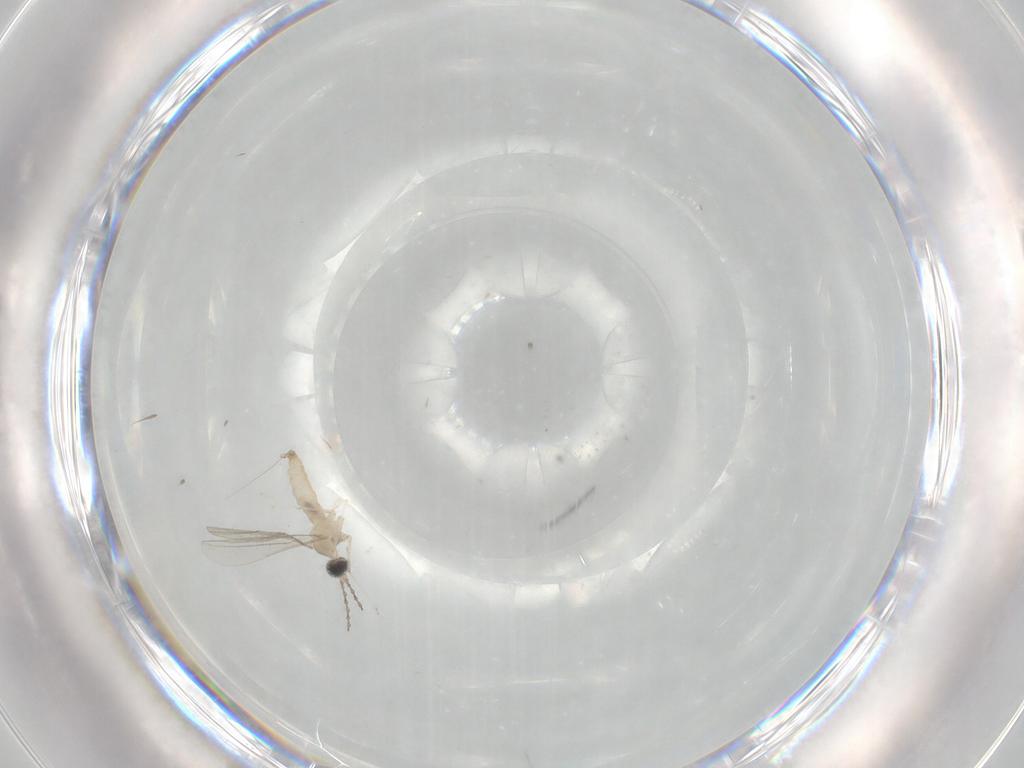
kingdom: Animalia
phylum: Arthropoda
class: Insecta
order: Diptera
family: Cecidomyiidae
